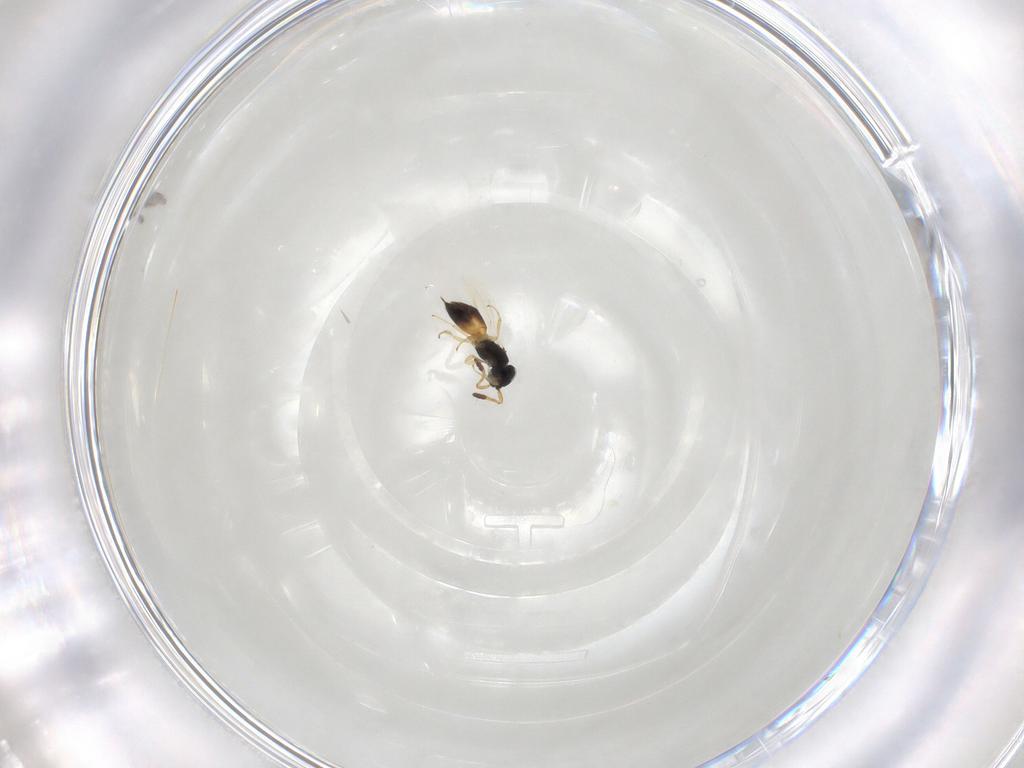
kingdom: Animalia
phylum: Arthropoda
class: Insecta
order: Hymenoptera
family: Scelionidae
